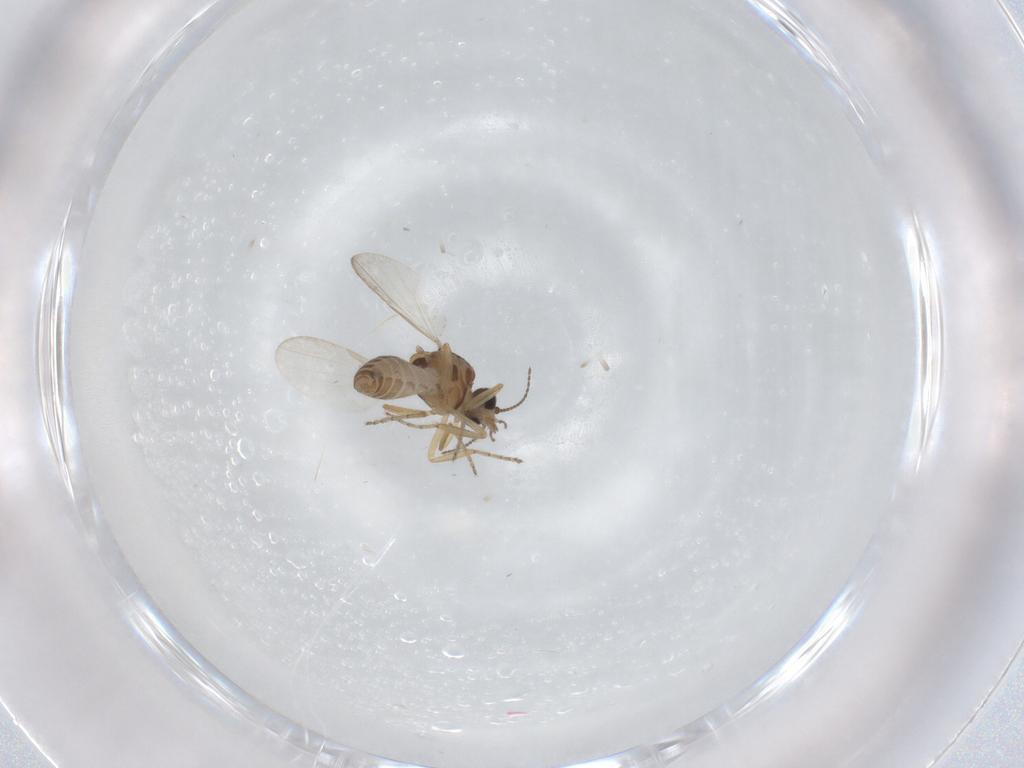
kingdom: Animalia
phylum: Arthropoda
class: Insecta
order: Diptera
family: Ceratopogonidae
